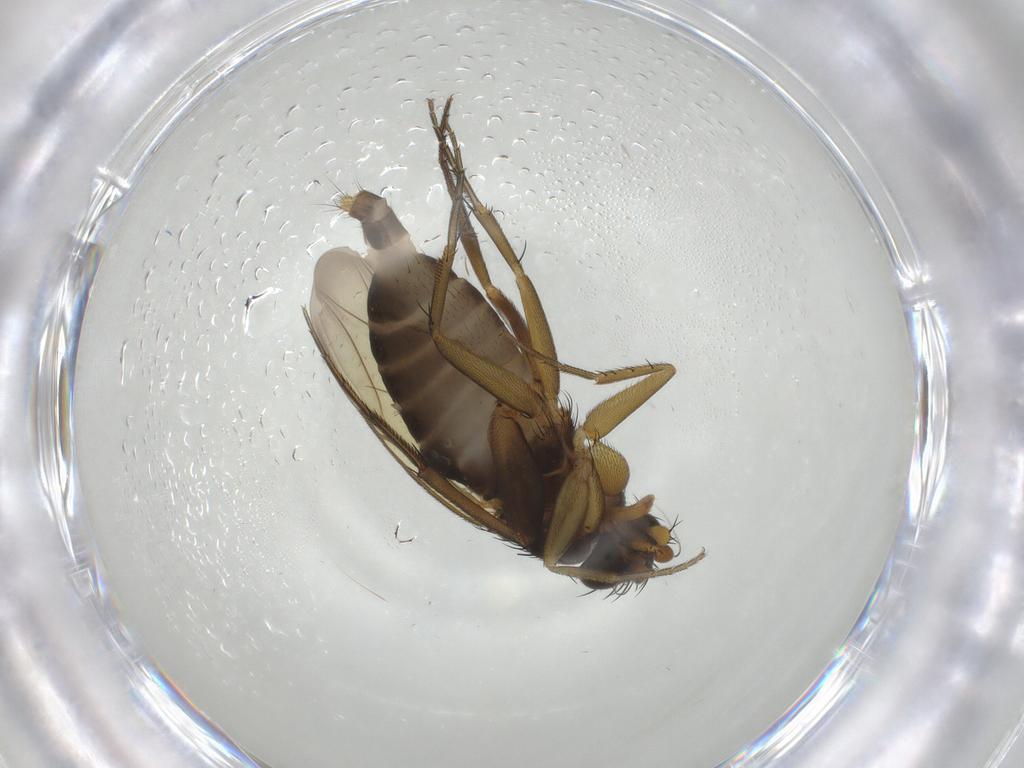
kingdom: Animalia
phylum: Arthropoda
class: Insecta
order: Diptera
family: Phoridae
